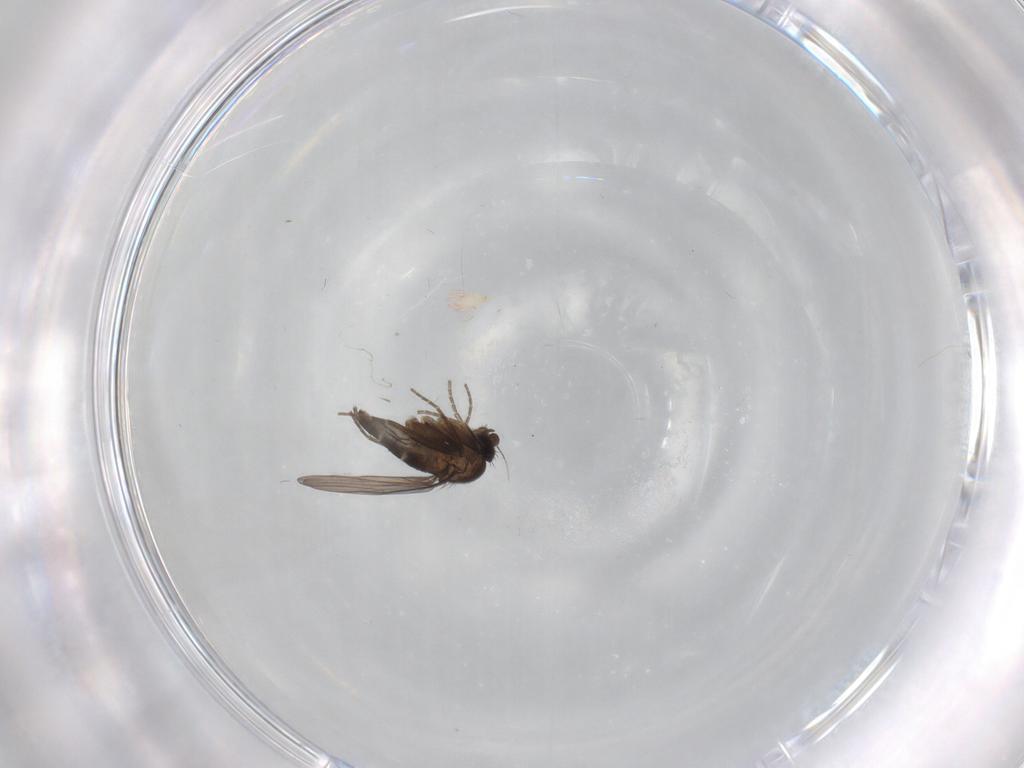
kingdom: Animalia
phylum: Arthropoda
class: Insecta
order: Diptera
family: Phoridae
